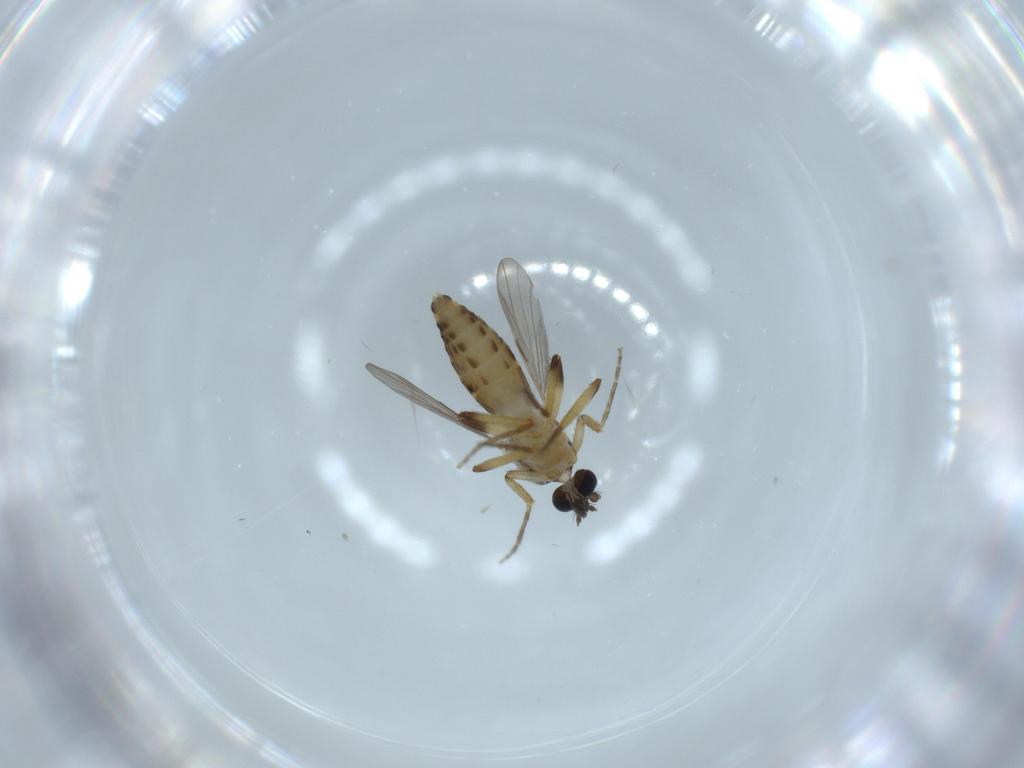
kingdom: Animalia
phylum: Arthropoda
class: Insecta
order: Diptera
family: Ceratopogonidae
